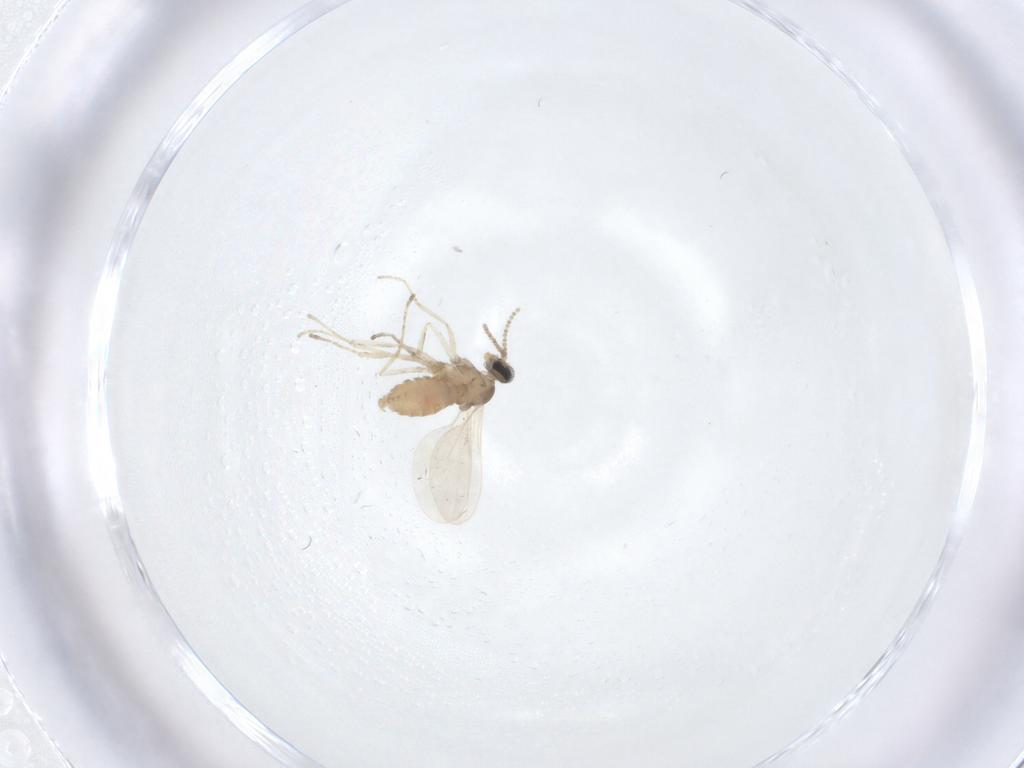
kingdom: Animalia
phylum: Arthropoda
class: Insecta
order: Diptera
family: Cecidomyiidae
